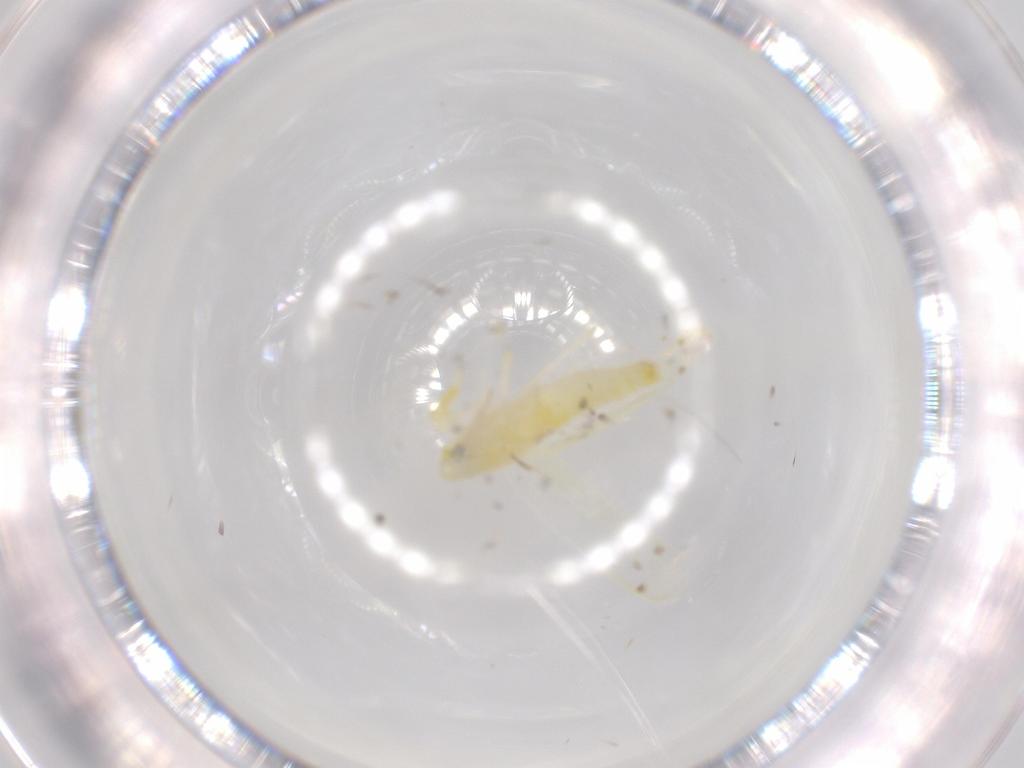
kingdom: Animalia
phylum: Arthropoda
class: Insecta
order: Hemiptera
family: Cicadellidae
